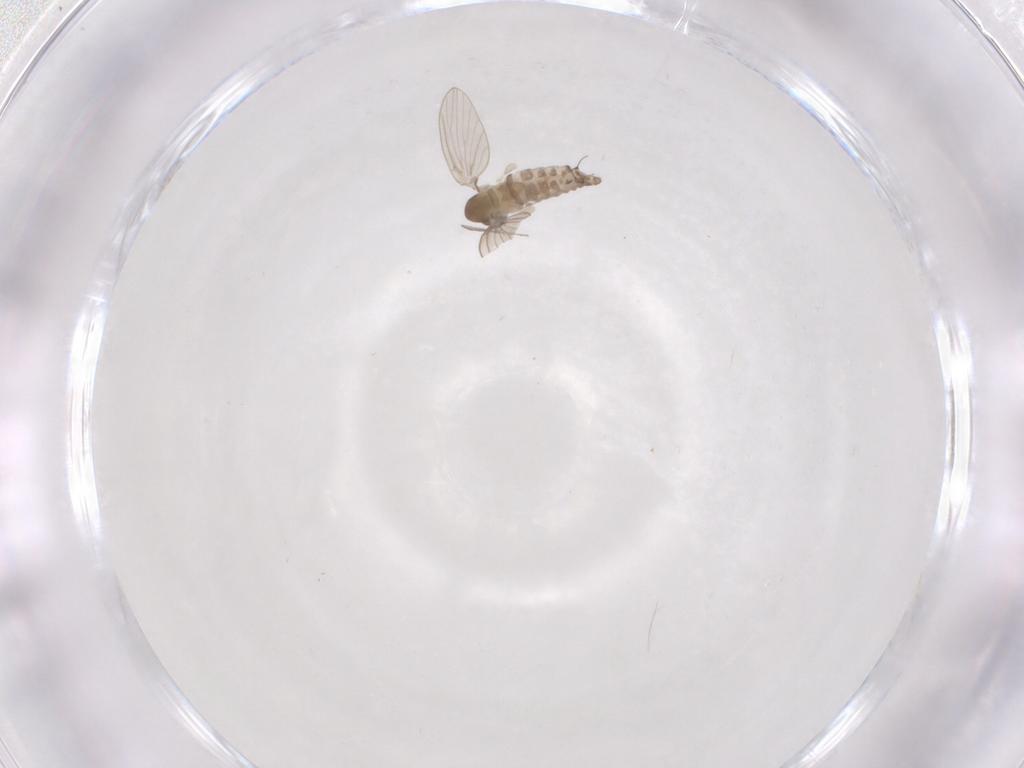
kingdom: Animalia
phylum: Arthropoda
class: Insecta
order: Diptera
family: Psychodidae
